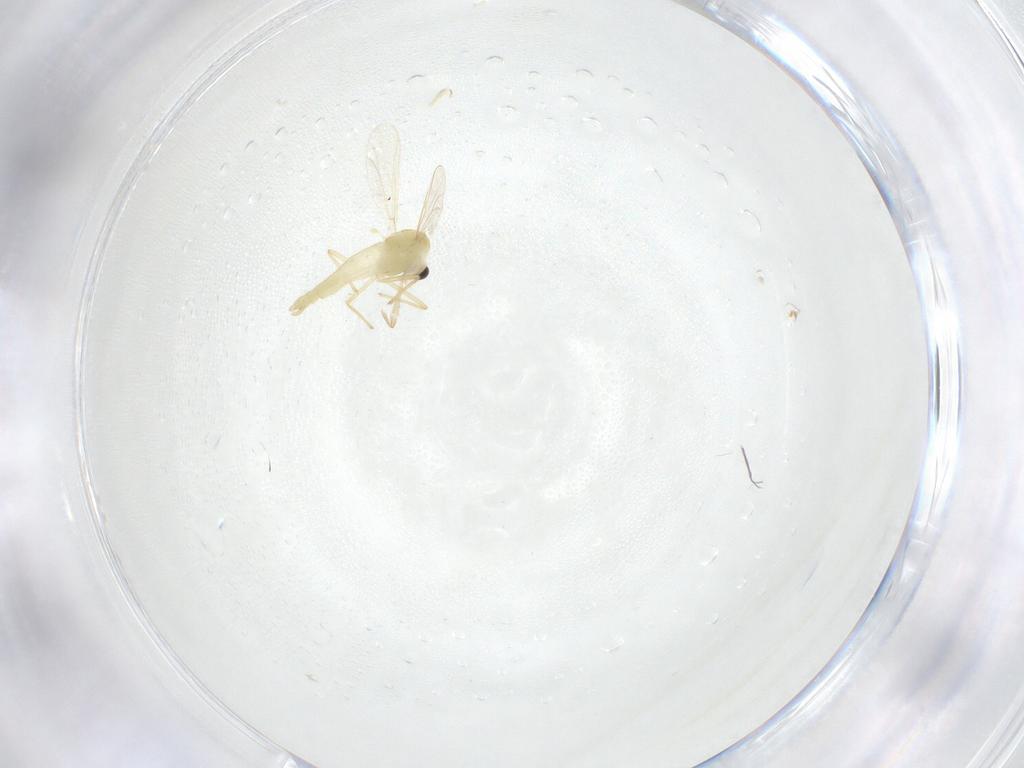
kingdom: Animalia
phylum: Arthropoda
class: Insecta
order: Diptera
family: Chironomidae
